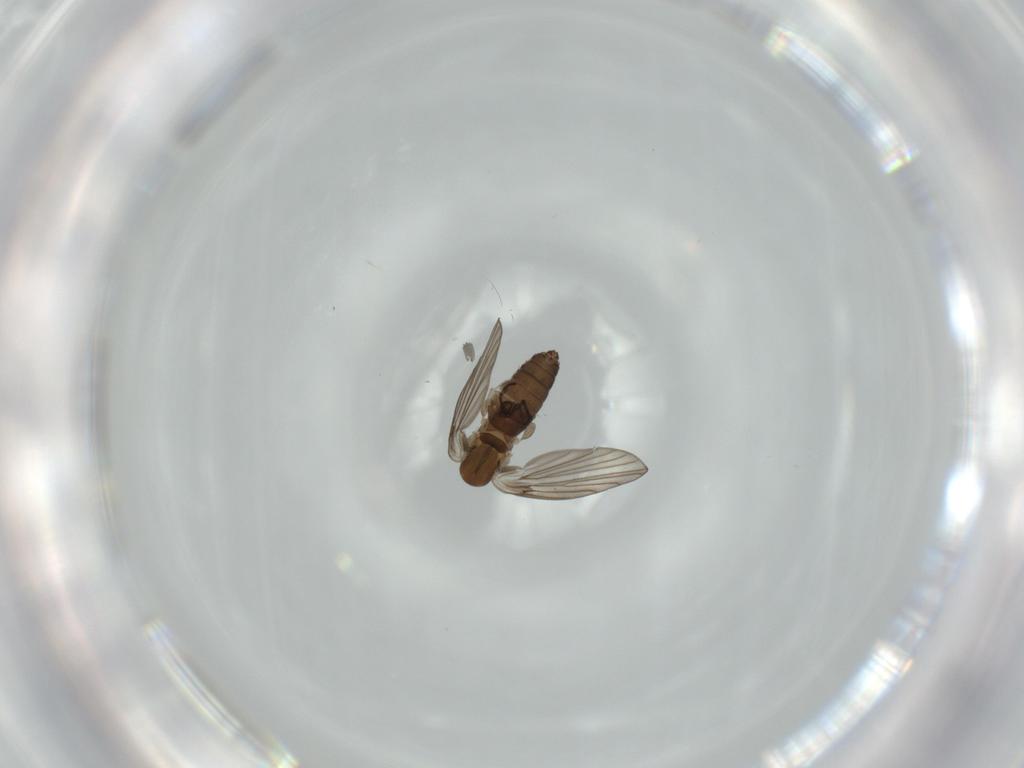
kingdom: Animalia
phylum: Arthropoda
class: Insecta
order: Diptera
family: Psychodidae
